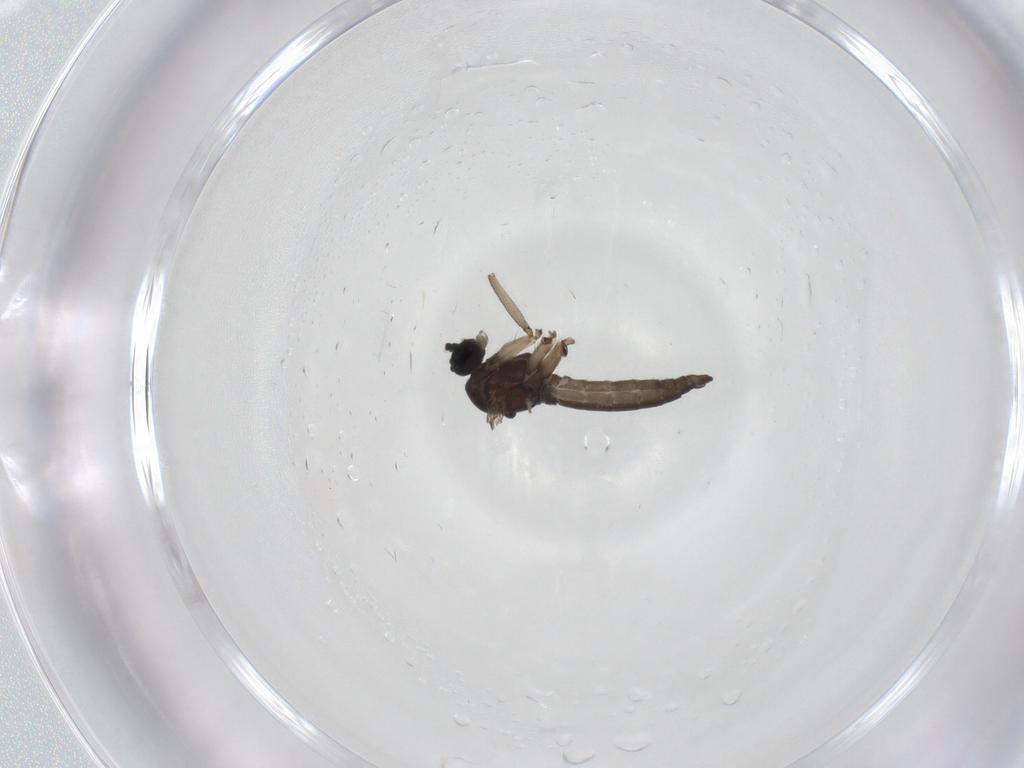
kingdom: Animalia
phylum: Arthropoda
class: Insecta
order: Diptera
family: Sciaridae
